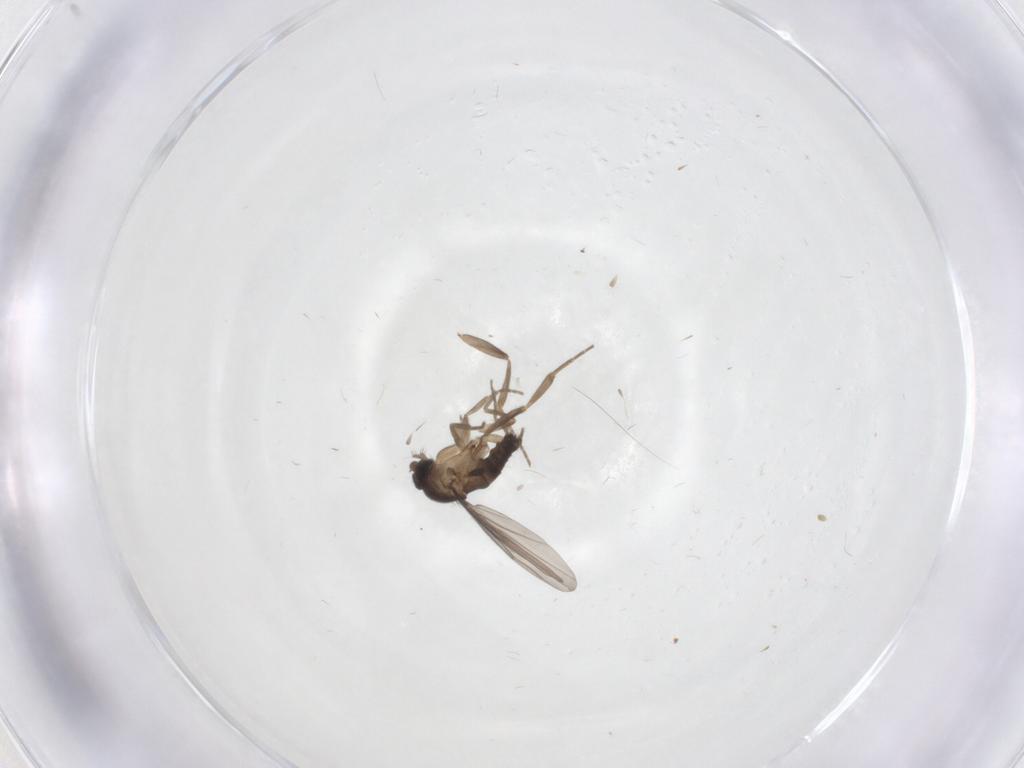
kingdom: Animalia
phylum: Arthropoda
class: Insecta
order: Diptera
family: Phoridae
